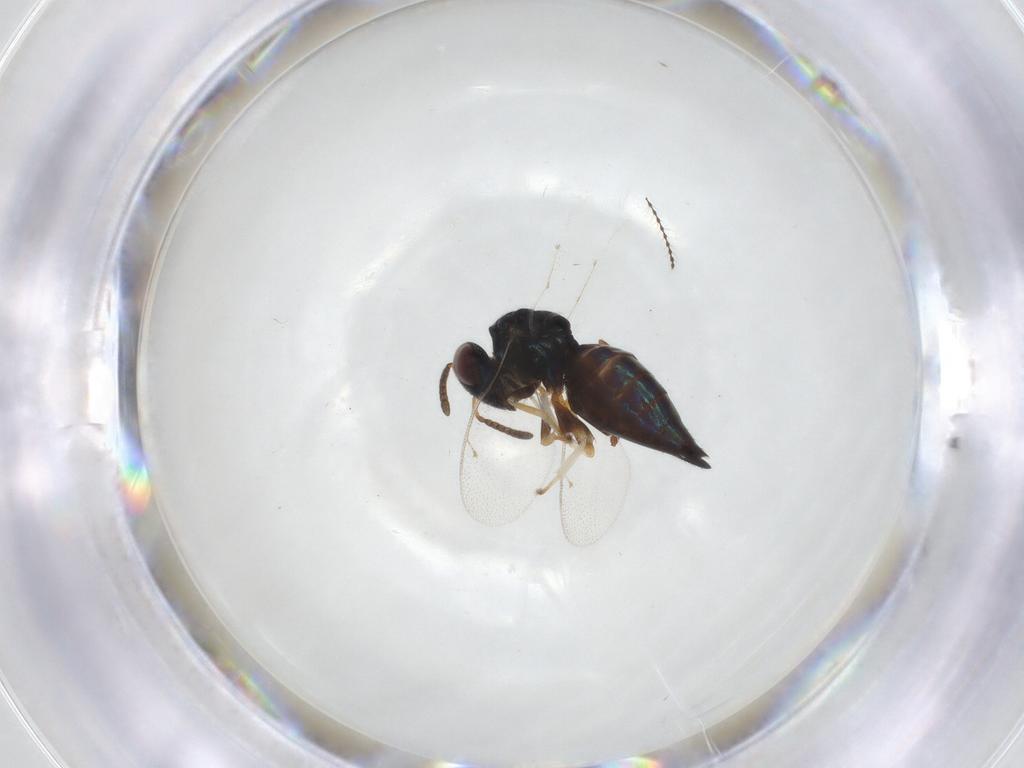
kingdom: Animalia
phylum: Arthropoda
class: Insecta
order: Hymenoptera
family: Pteromalidae
